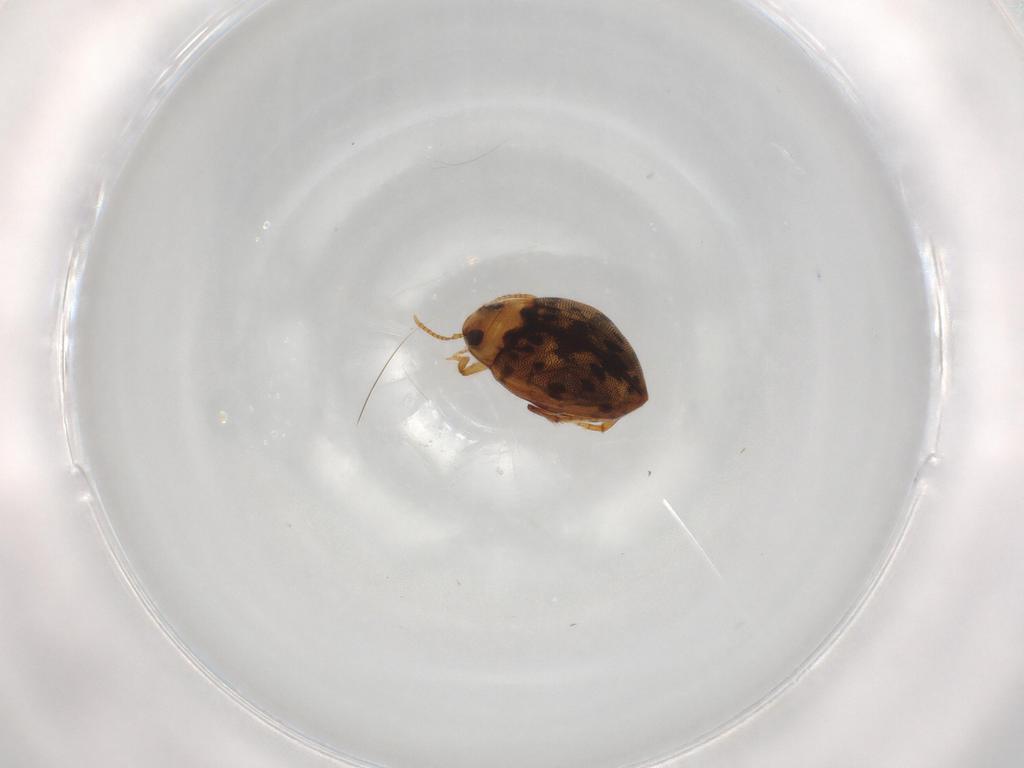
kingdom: Animalia
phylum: Arthropoda
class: Insecta
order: Coleoptera
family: Dytiscidae
